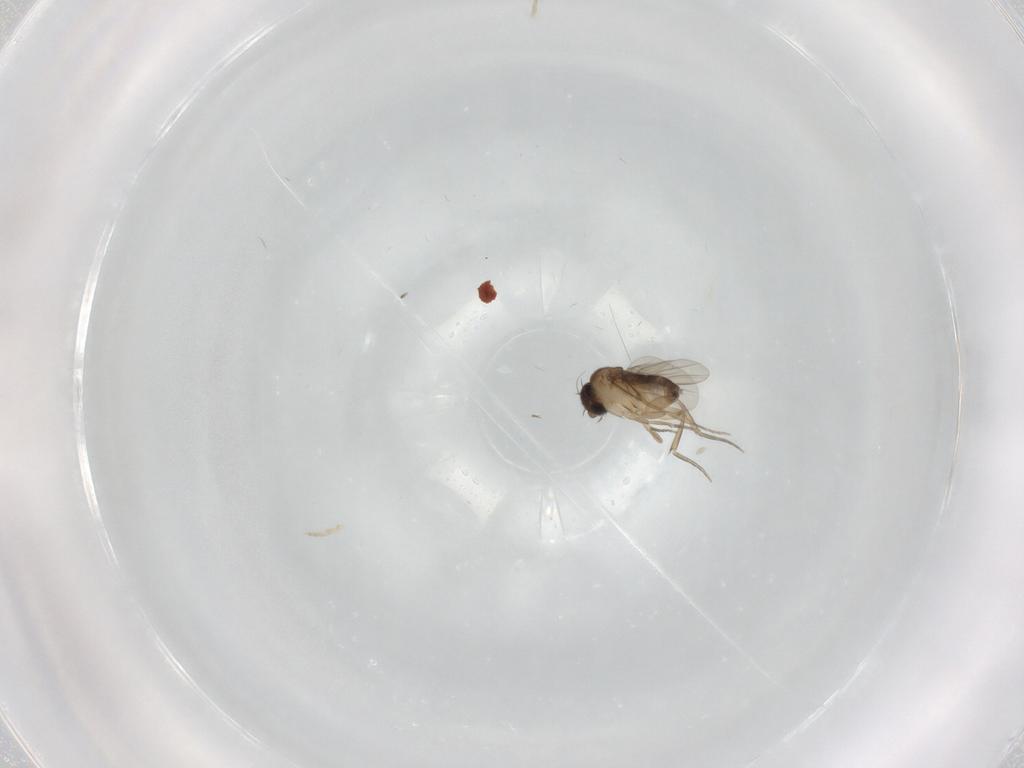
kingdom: Animalia
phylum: Arthropoda
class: Insecta
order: Diptera
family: Phoridae
